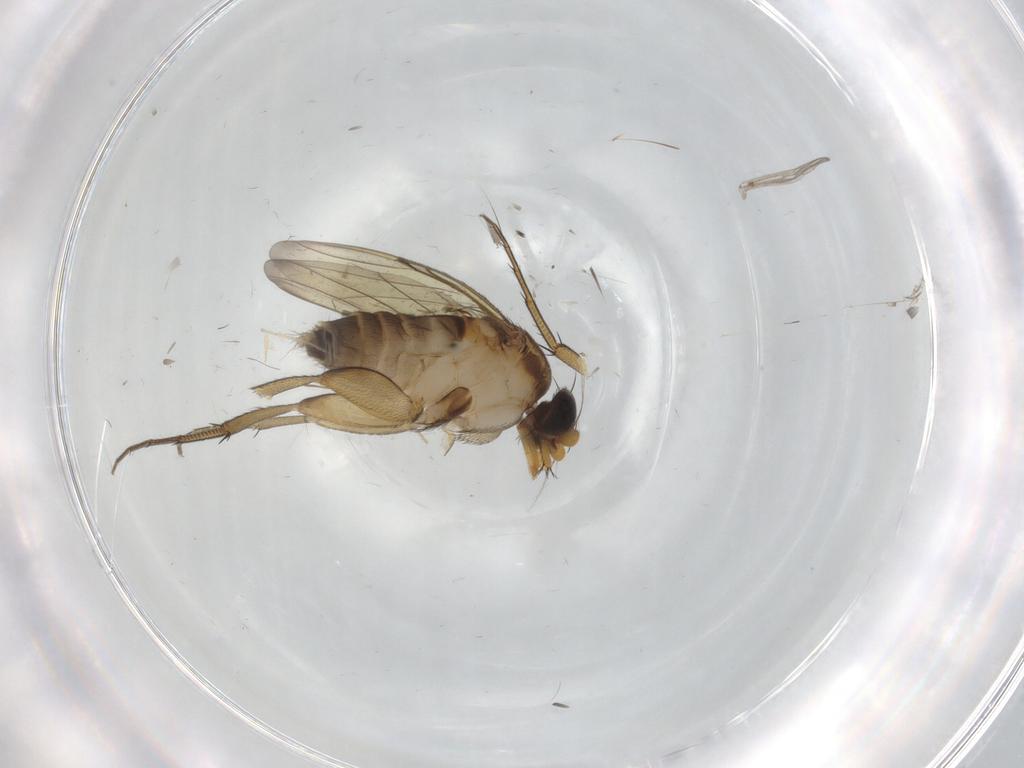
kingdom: Animalia
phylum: Arthropoda
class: Insecta
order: Diptera
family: Phoridae
